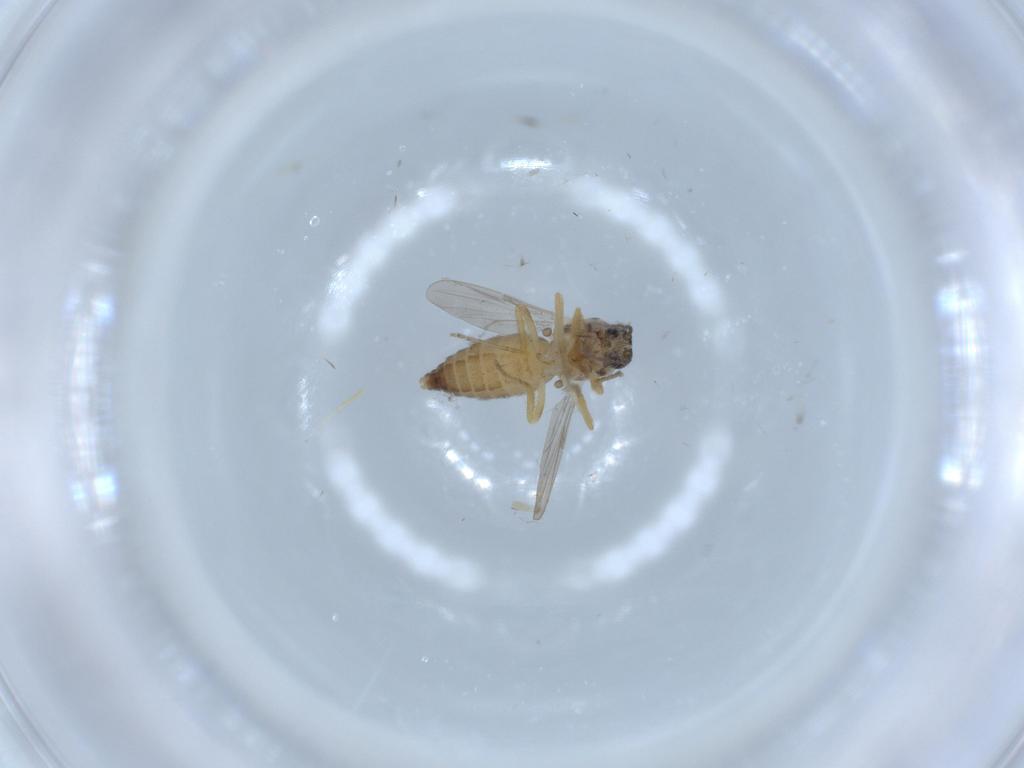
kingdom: Animalia
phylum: Arthropoda
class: Insecta
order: Diptera
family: Ceratopogonidae
